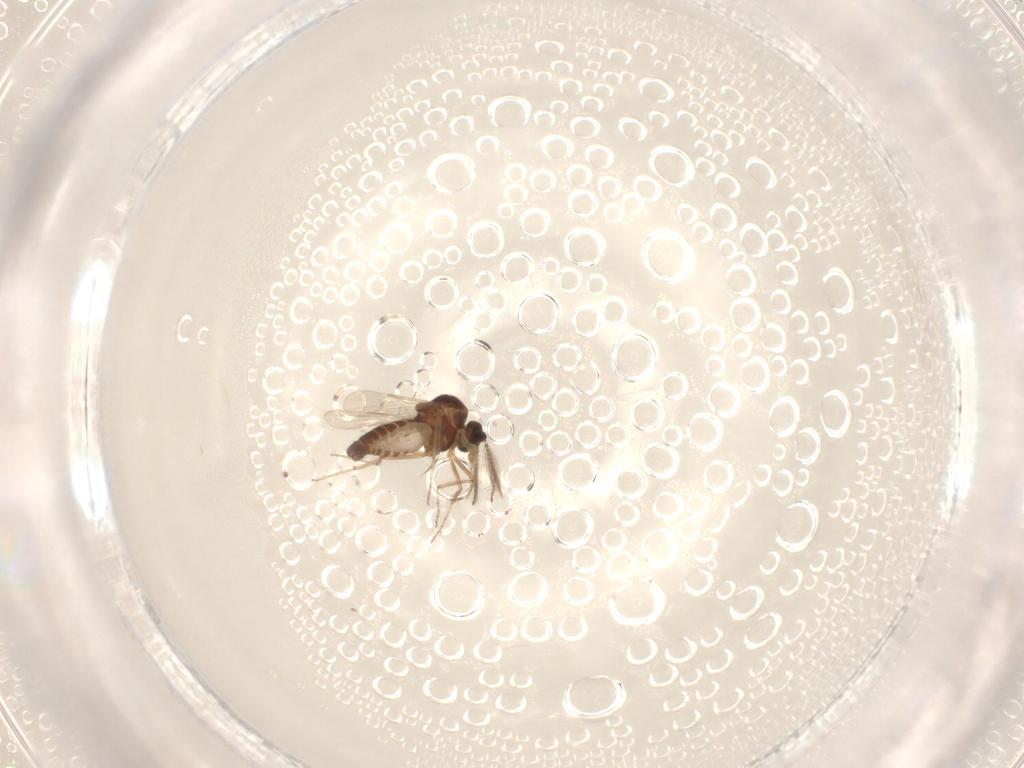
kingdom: Animalia
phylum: Arthropoda
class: Insecta
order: Diptera
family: Ceratopogonidae
